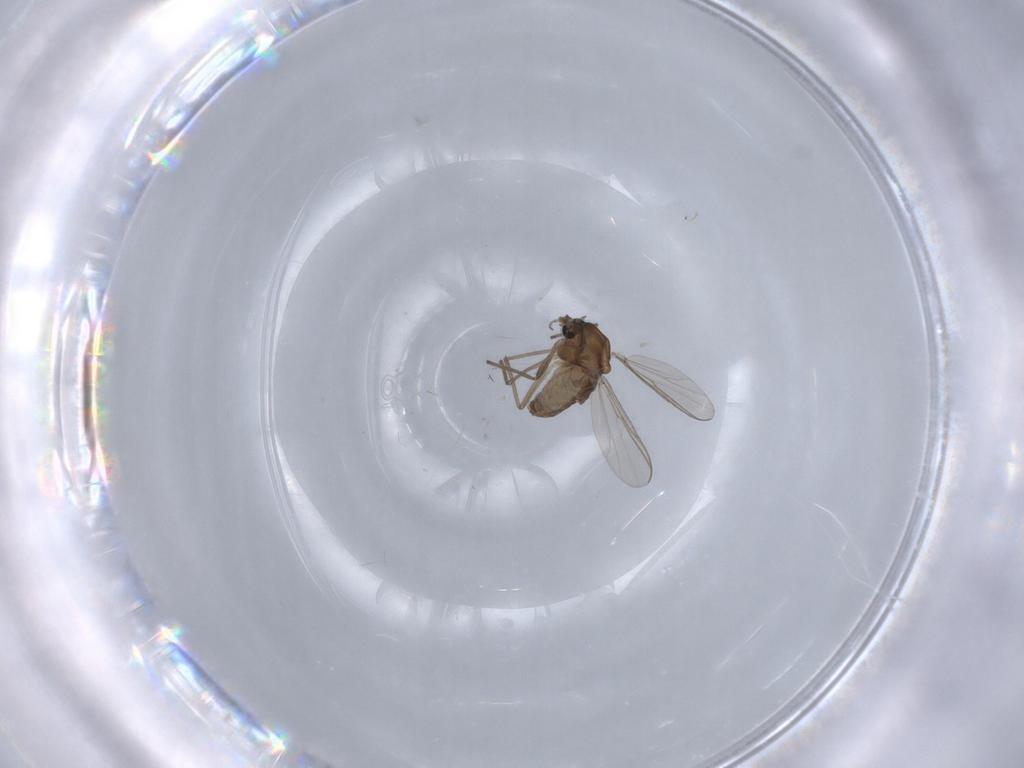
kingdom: Animalia
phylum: Arthropoda
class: Insecta
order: Diptera
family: Chironomidae
